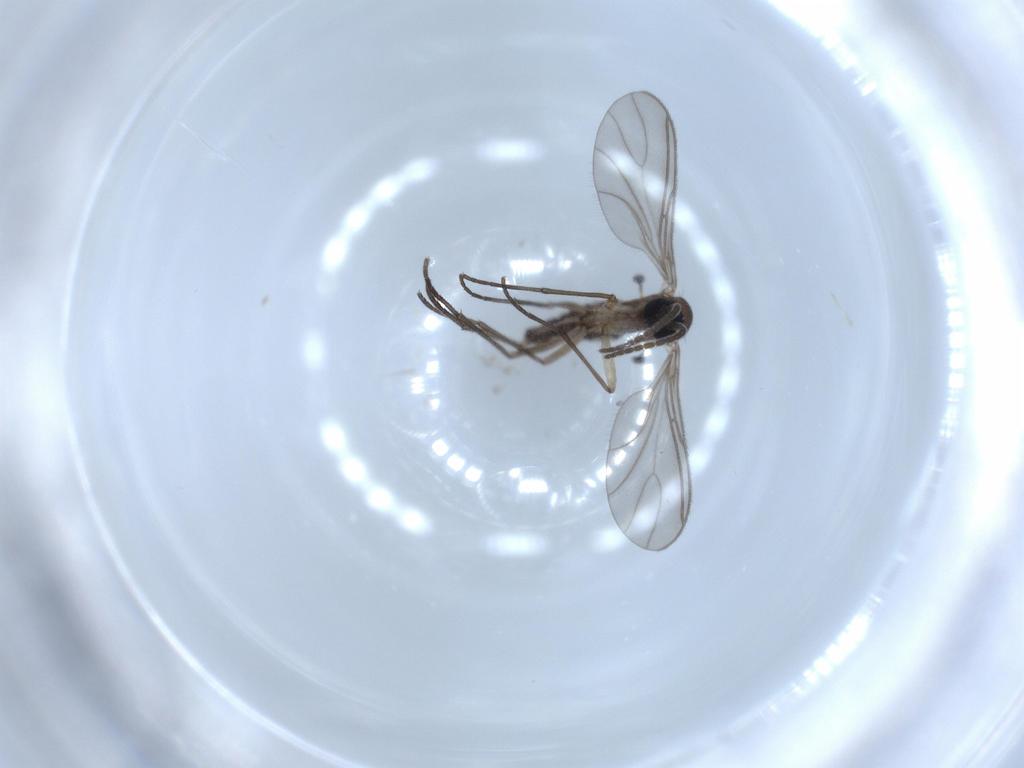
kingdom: Animalia
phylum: Arthropoda
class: Insecta
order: Diptera
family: Sciaridae
